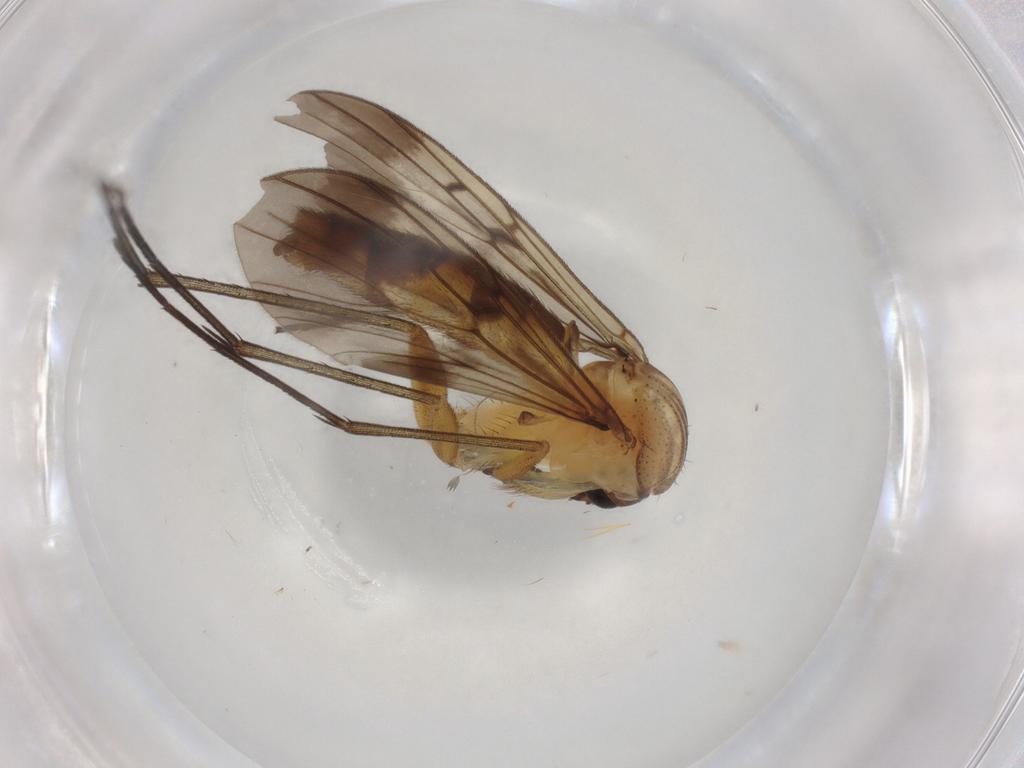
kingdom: Animalia
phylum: Arthropoda
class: Insecta
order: Diptera
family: Mycetophilidae
